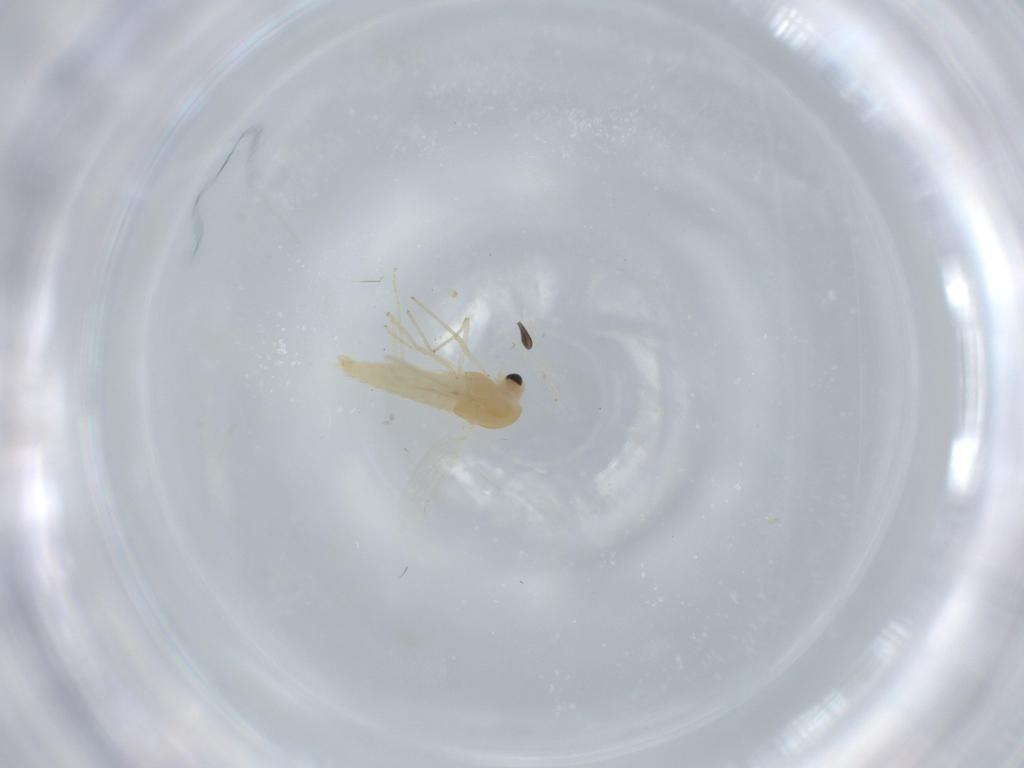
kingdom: Animalia
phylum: Arthropoda
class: Insecta
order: Diptera
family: Chironomidae
